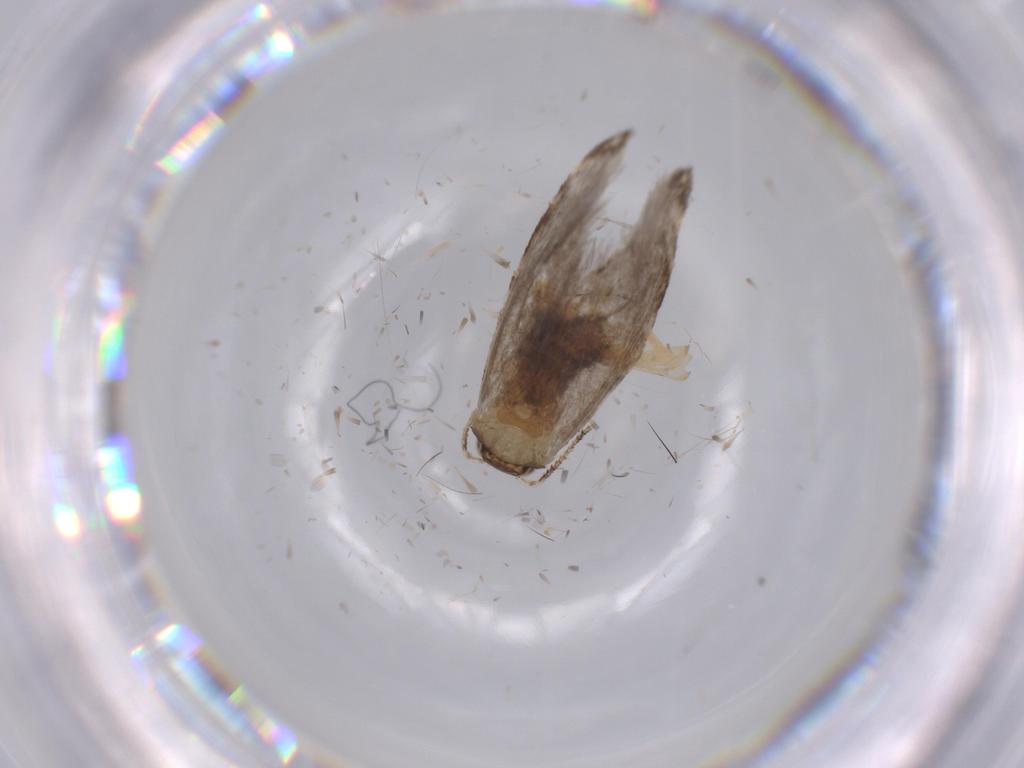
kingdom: Animalia
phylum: Arthropoda
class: Insecta
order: Lepidoptera
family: Tineidae
